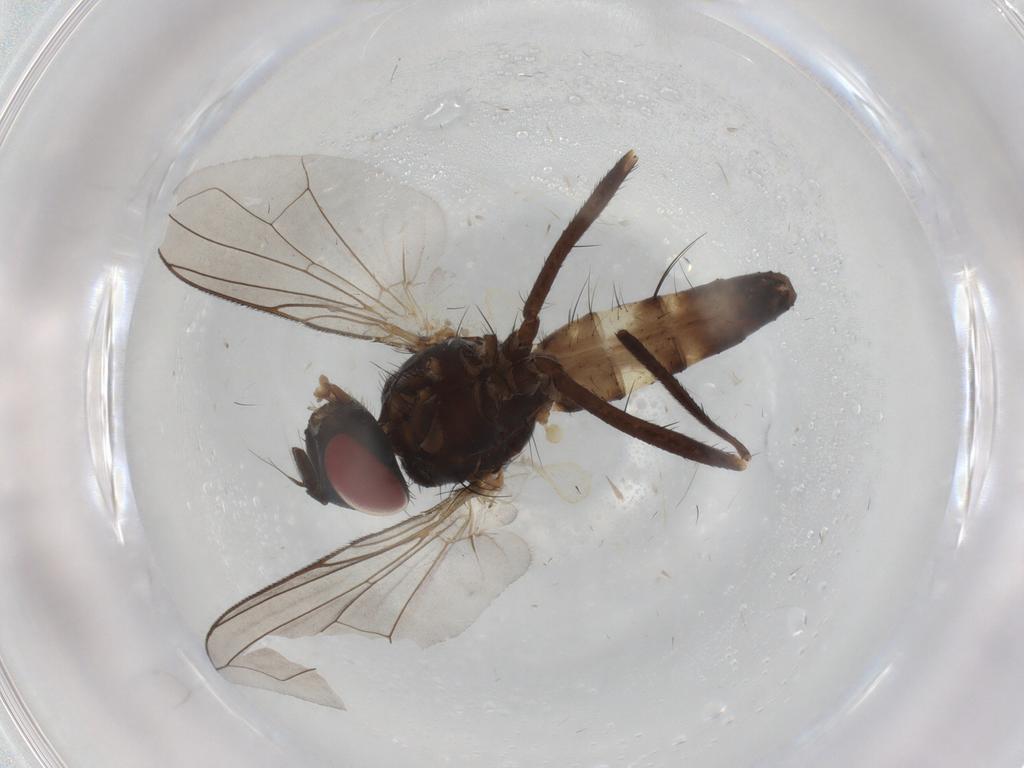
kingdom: Animalia
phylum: Arthropoda
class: Insecta
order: Diptera
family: Tachinidae
